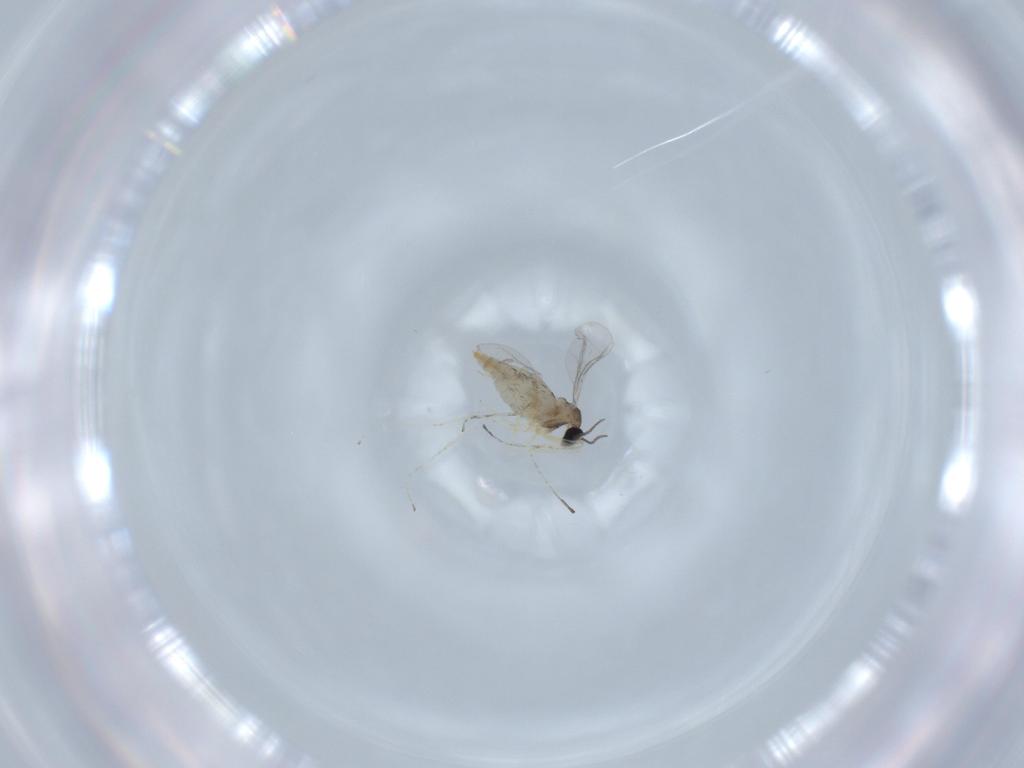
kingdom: Animalia
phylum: Arthropoda
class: Insecta
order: Diptera
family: Cecidomyiidae
